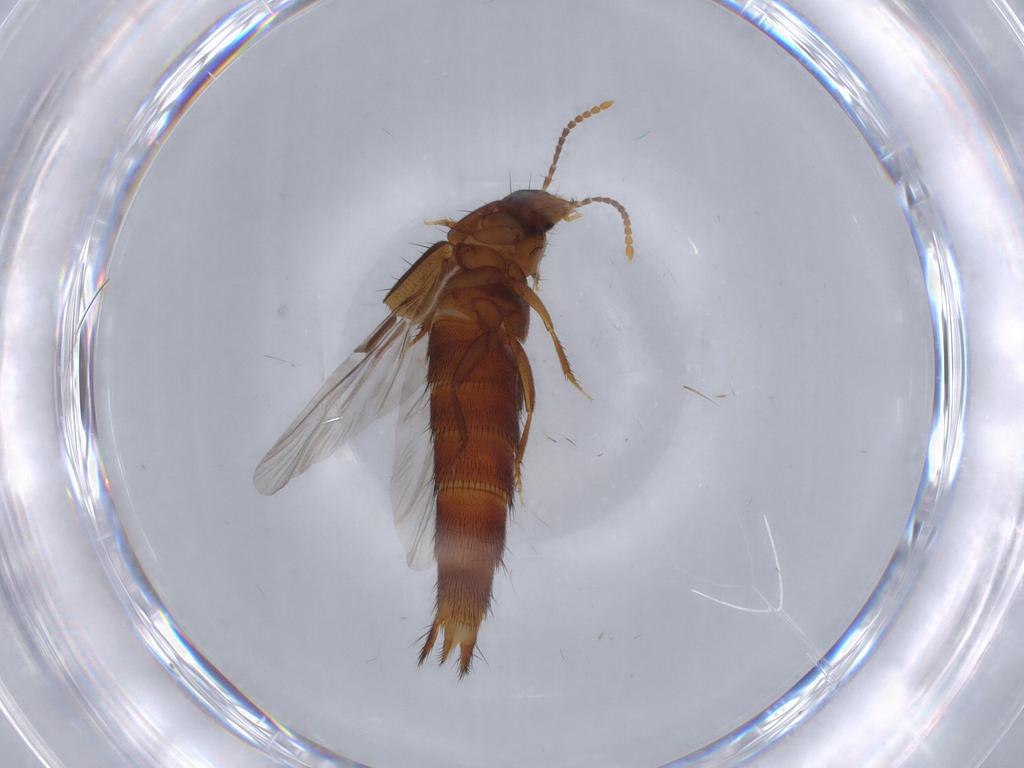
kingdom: Animalia
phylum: Arthropoda
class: Insecta
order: Coleoptera
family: Staphylinidae
